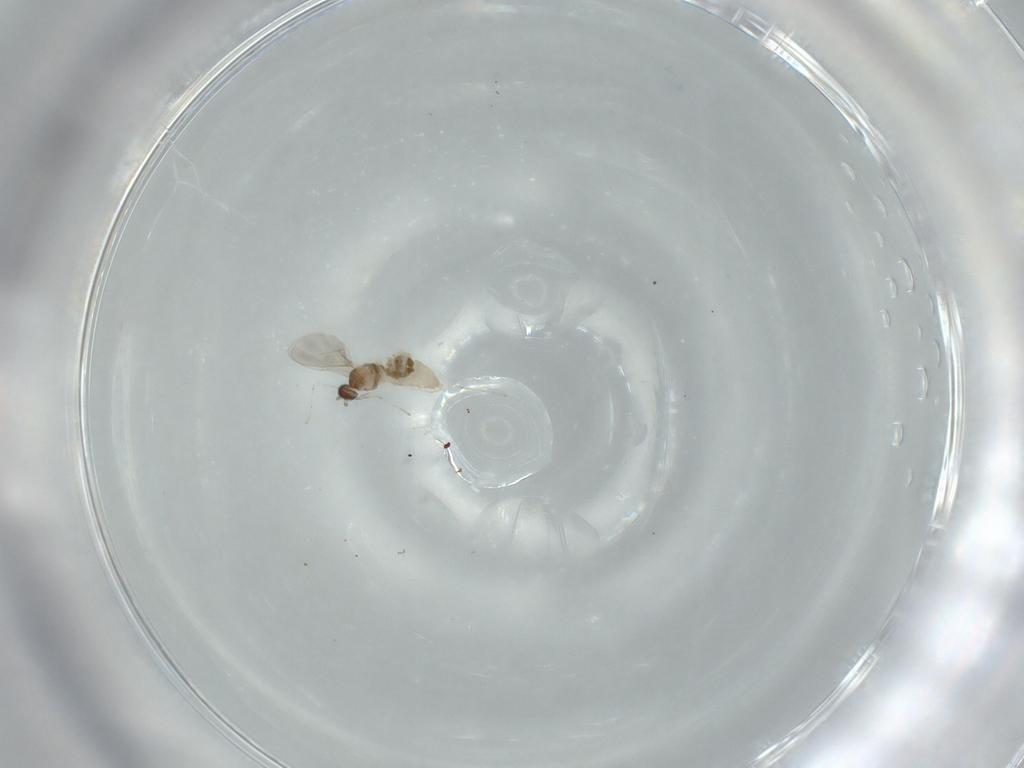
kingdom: Animalia
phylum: Arthropoda
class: Insecta
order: Diptera
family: Cecidomyiidae
